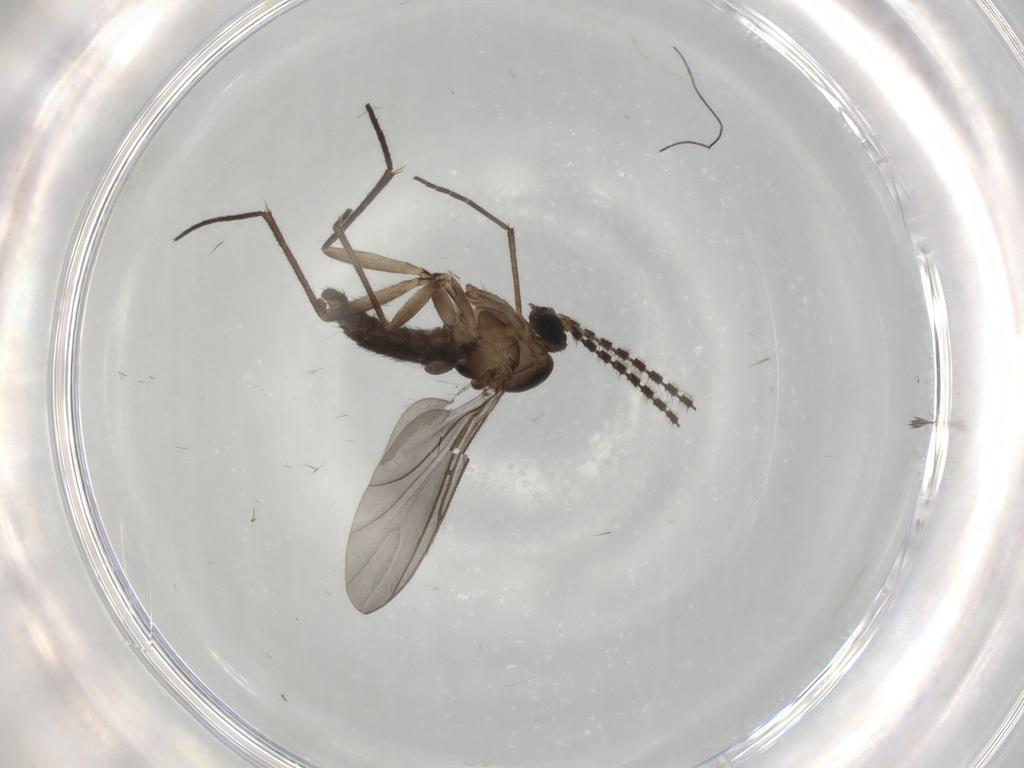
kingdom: Animalia
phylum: Arthropoda
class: Insecta
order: Diptera
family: Sciaridae
